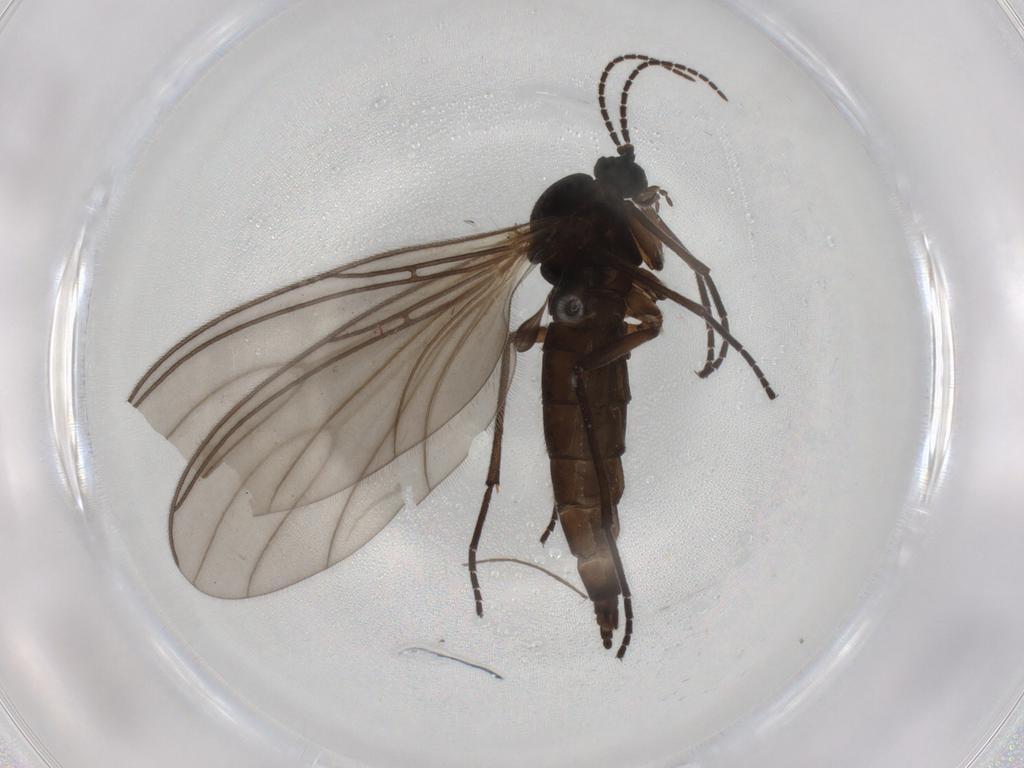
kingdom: Animalia
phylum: Arthropoda
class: Insecta
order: Diptera
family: Sciaridae
